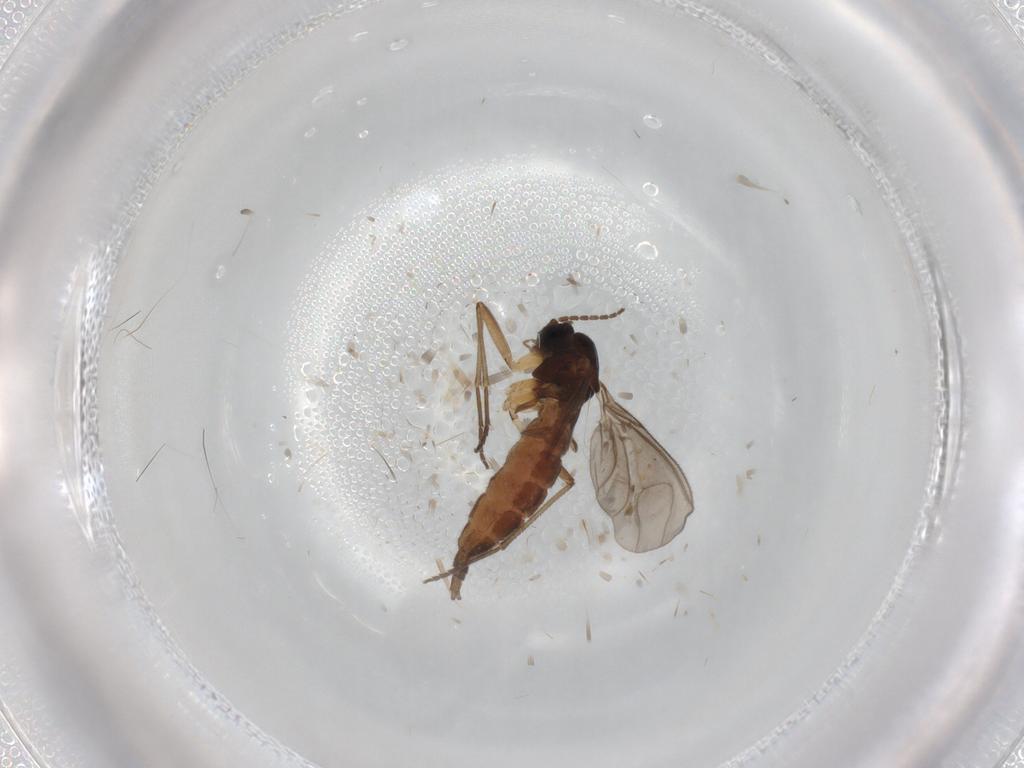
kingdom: Animalia
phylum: Arthropoda
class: Insecta
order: Diptera
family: Sciaridae
